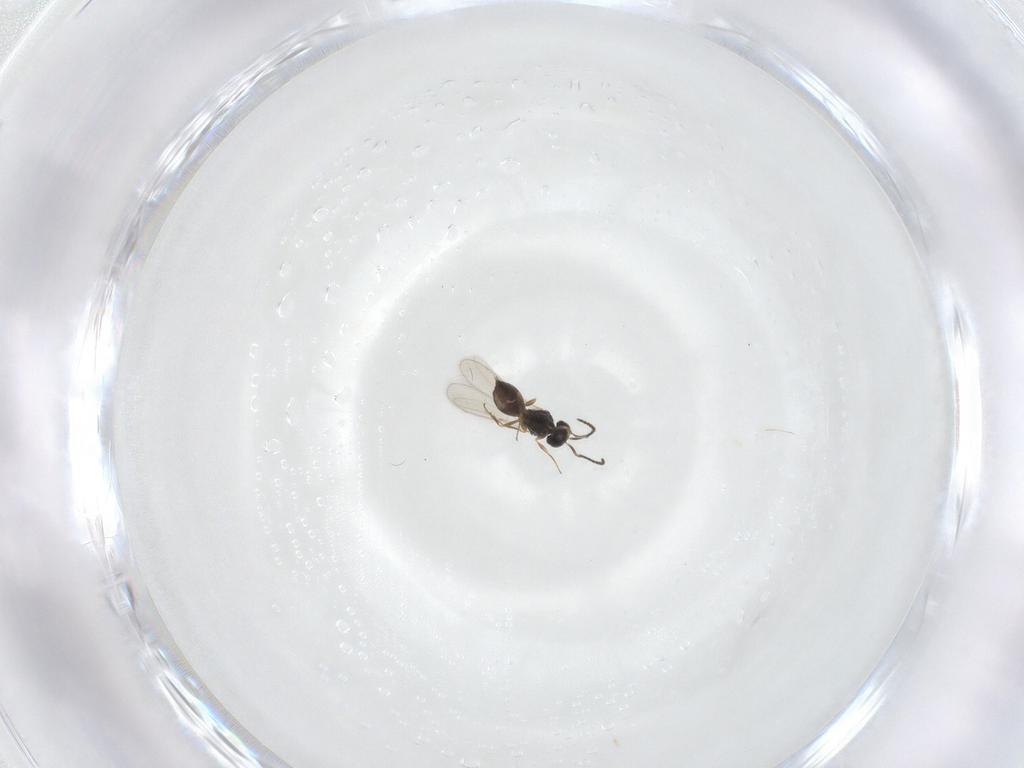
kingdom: Animalia
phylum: Arthropoda
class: Insecta
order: Hymenoptera
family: Scelionidae
